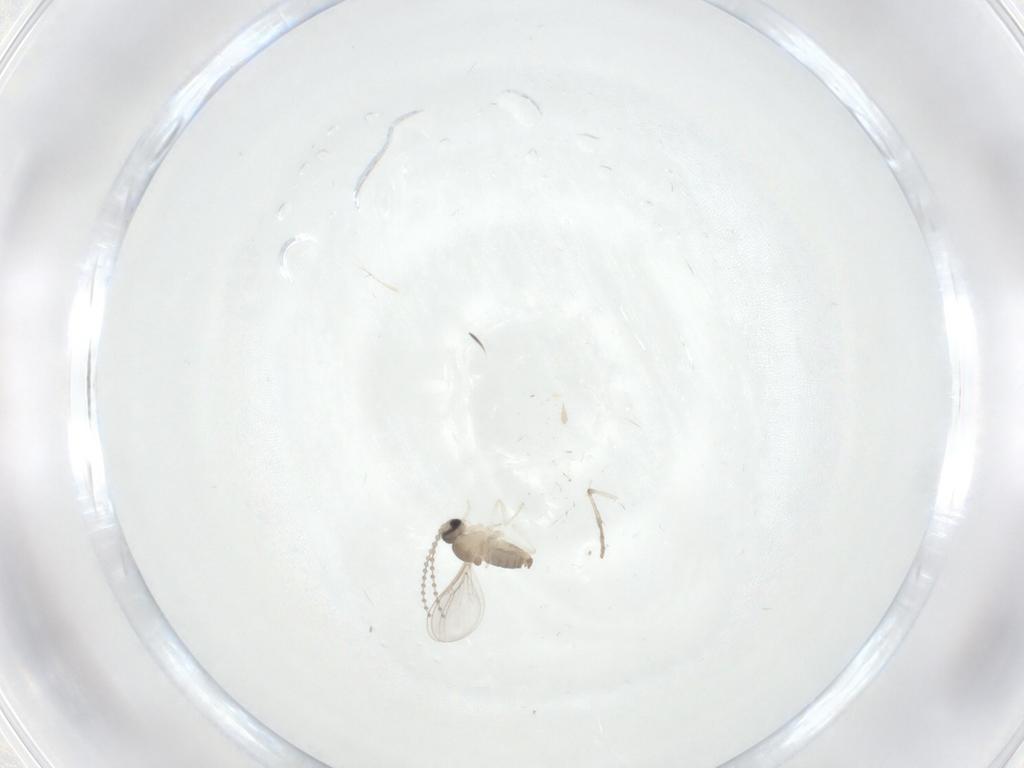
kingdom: Animalia
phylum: Arthropoda
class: Insecta
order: Diptera
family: Cecidomyiidae
